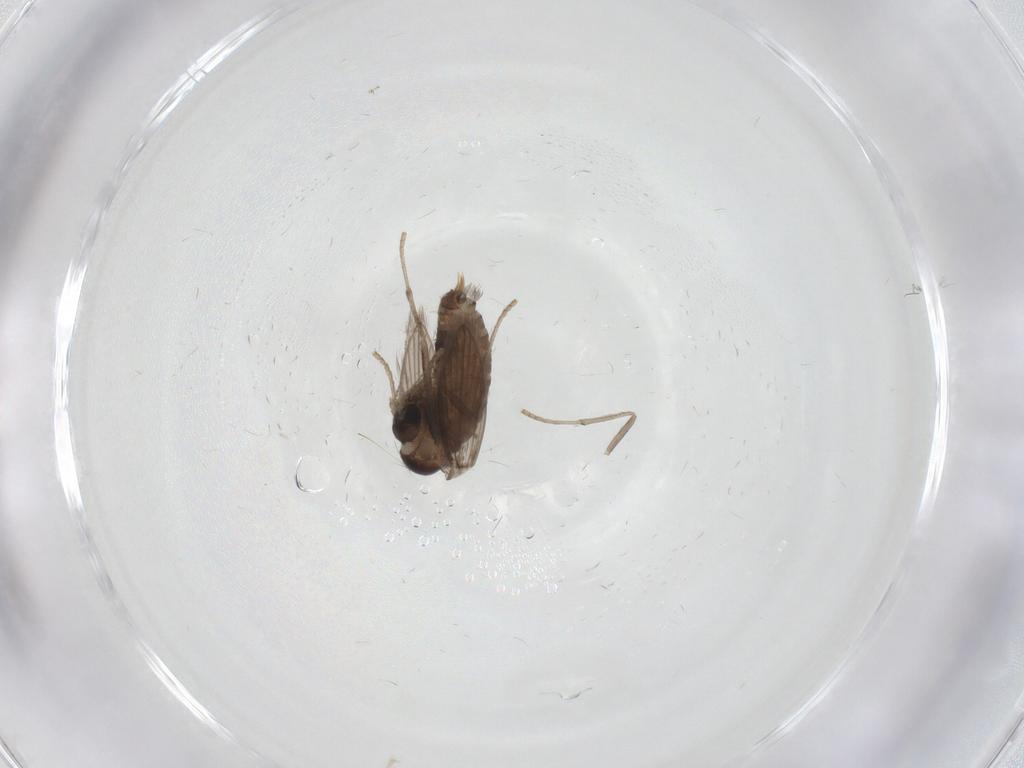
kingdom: Animalia
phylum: Arthropoda
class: Insecta
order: Diptera
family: Psychodidae
